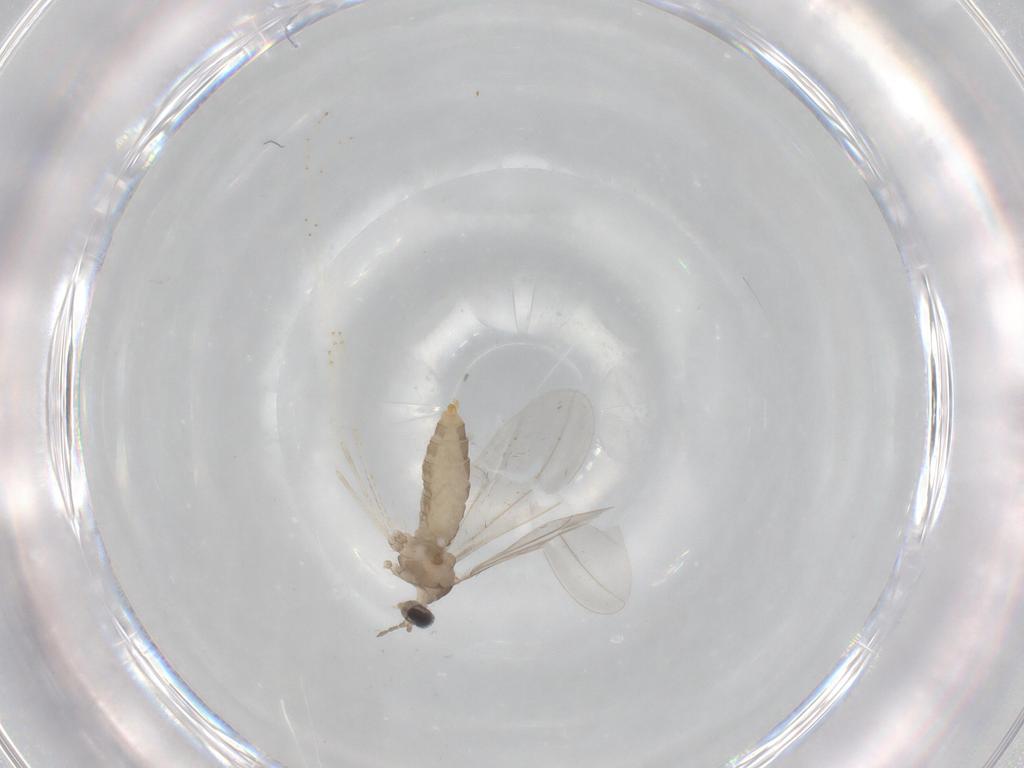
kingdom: Animalia
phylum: Arthropoda
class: Insecta
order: Diptera
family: Cecidomyiidae
